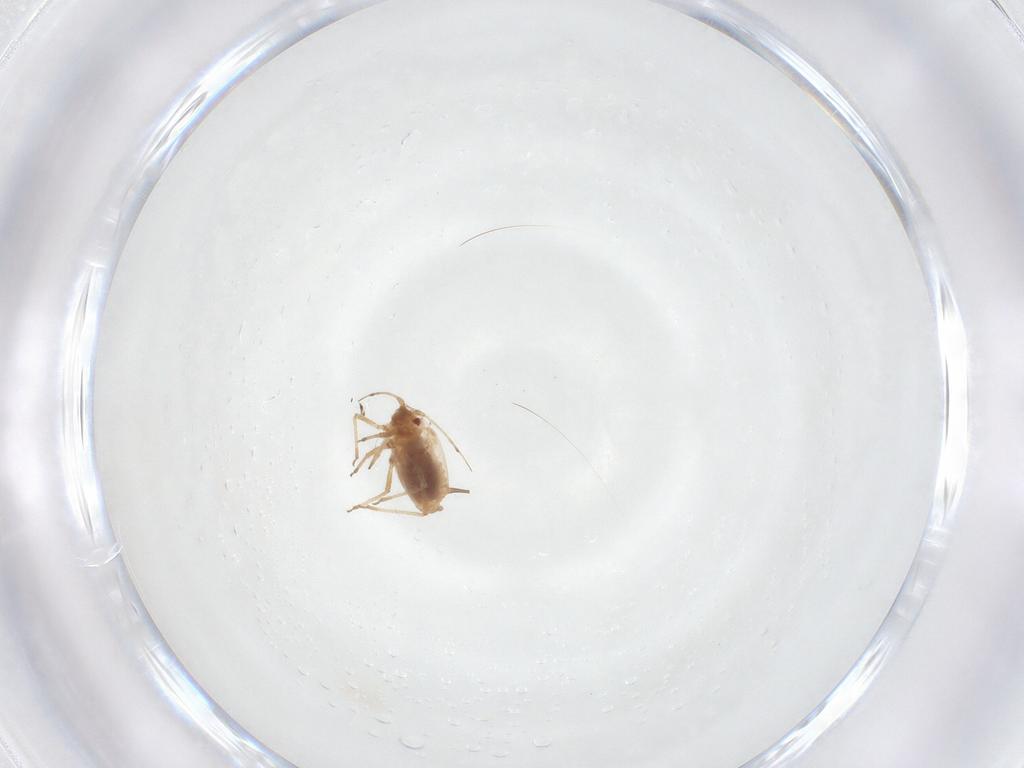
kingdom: Animalia
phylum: Arthropoda
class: Insecta
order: Hemiptera
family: Aphididae
